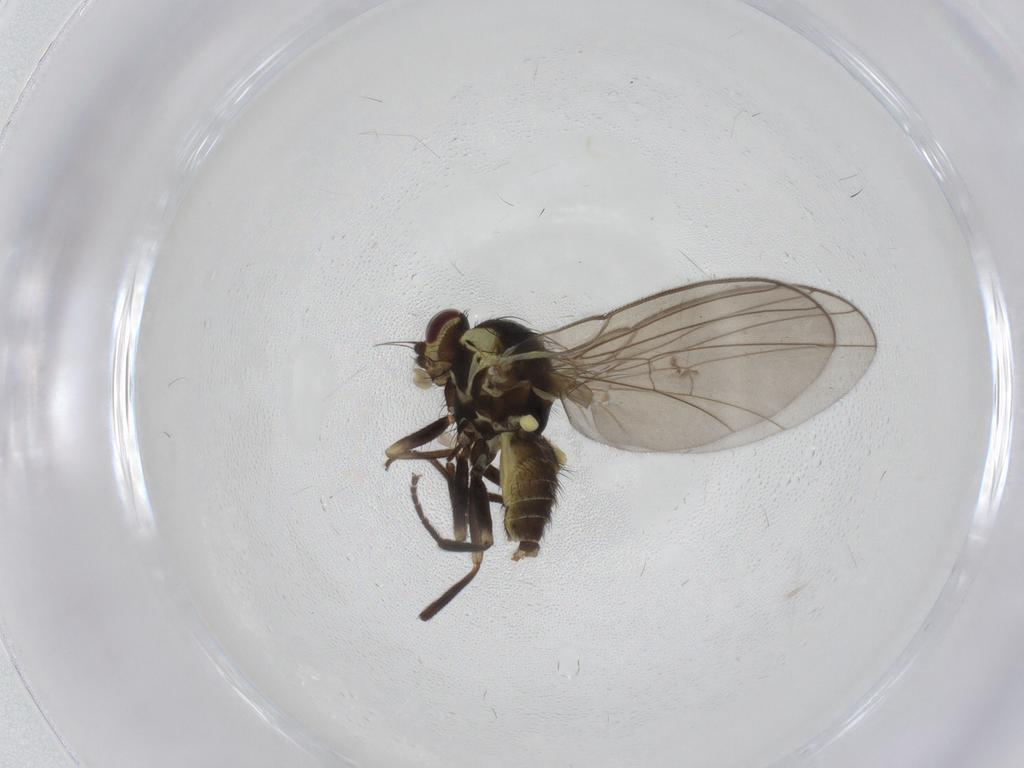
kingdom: Animalia
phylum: Arthropoda
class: Insecta
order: Diptera
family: Agromyzidae
